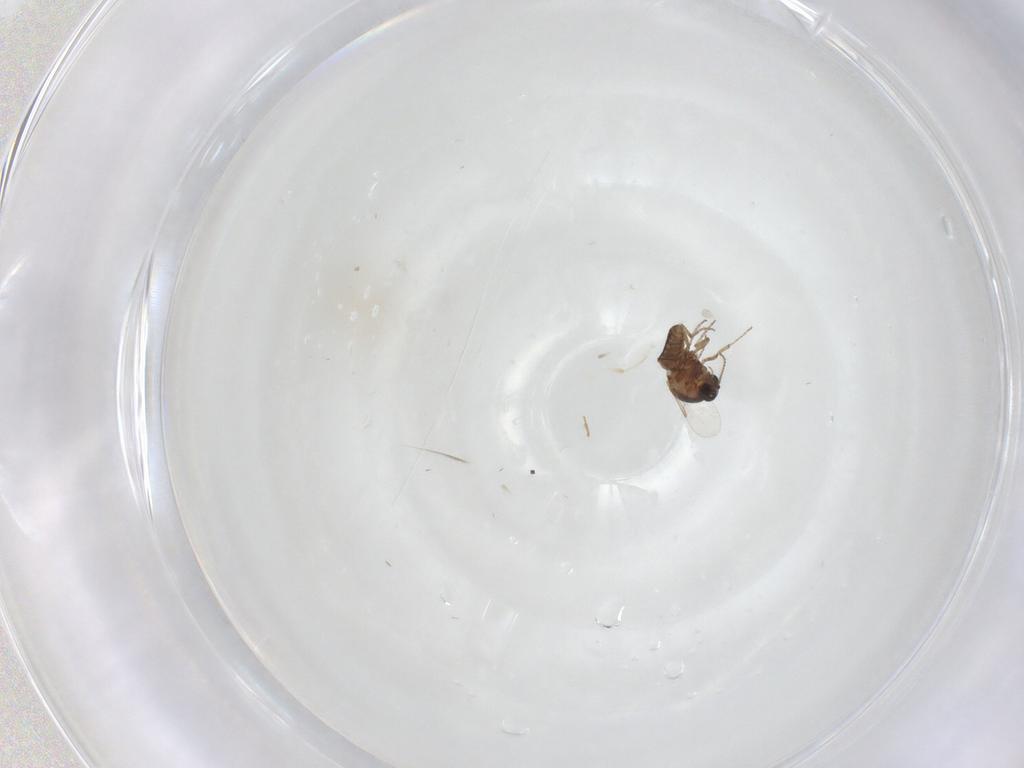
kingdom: Animalia
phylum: Arthropoda
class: Insecta
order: Diptera
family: Ceratopogonidae
